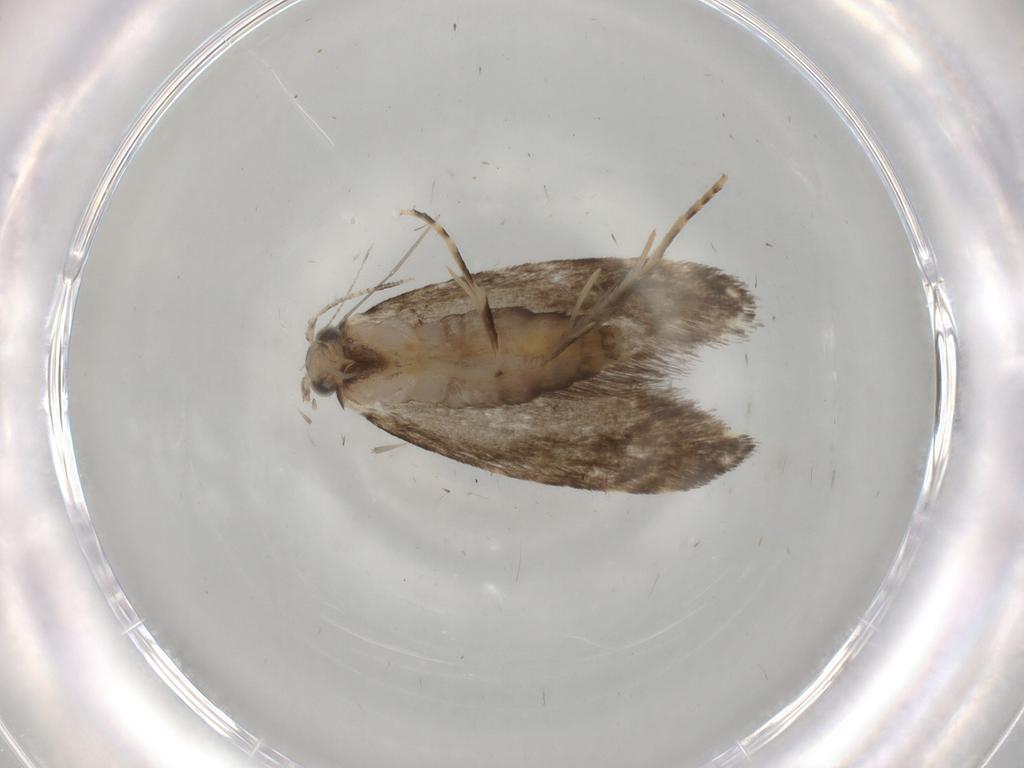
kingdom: Animalia
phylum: Arthropoda
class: Insecta
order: Lepidoptera
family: Tineidae
